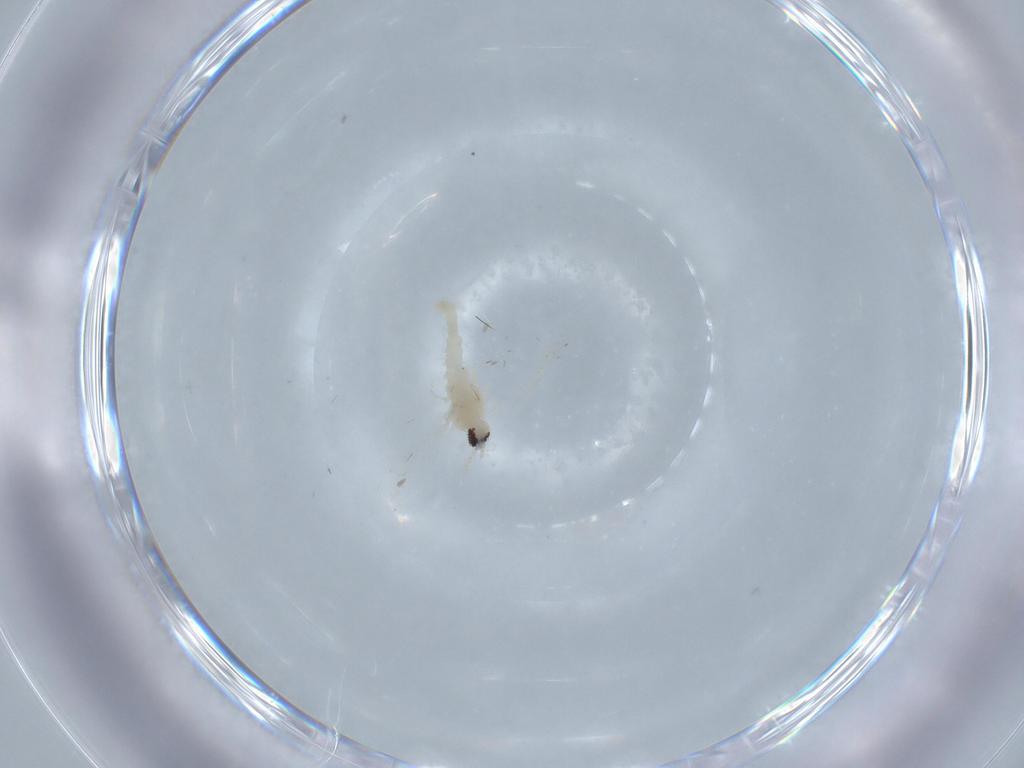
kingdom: Animalia
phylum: Arthropoda
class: Insecta
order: Diptera
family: Cecidomyiidae
